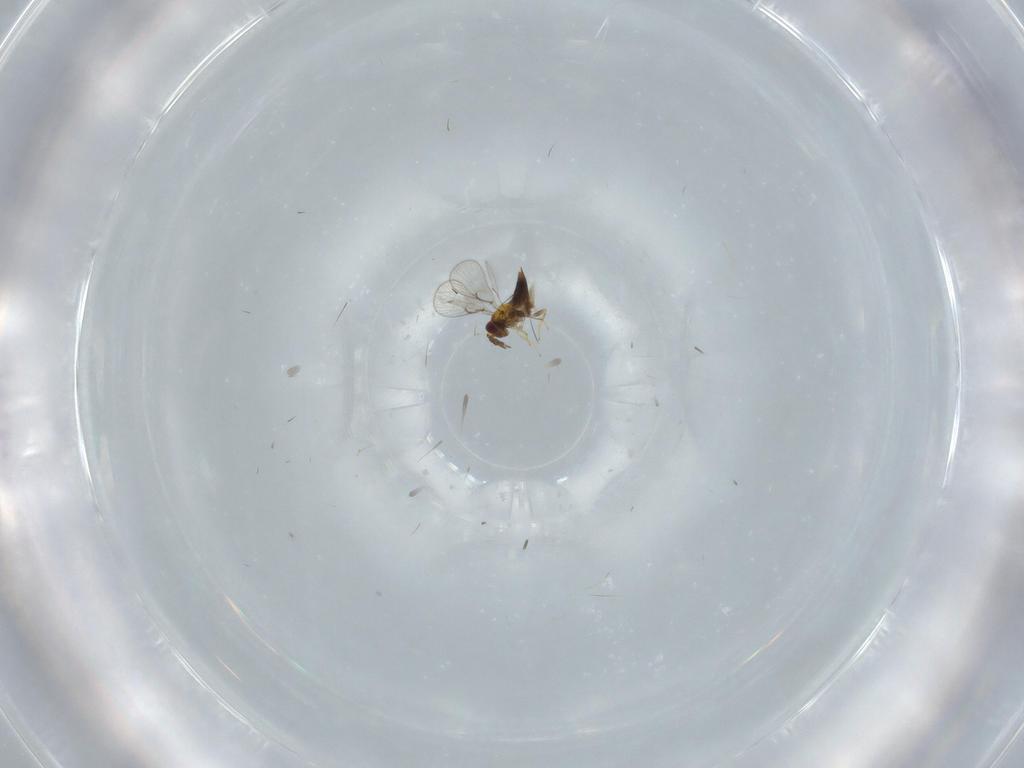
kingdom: Animalia
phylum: Arthropoda
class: Insecta
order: Hymenoptera
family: Trichogrammatidae
